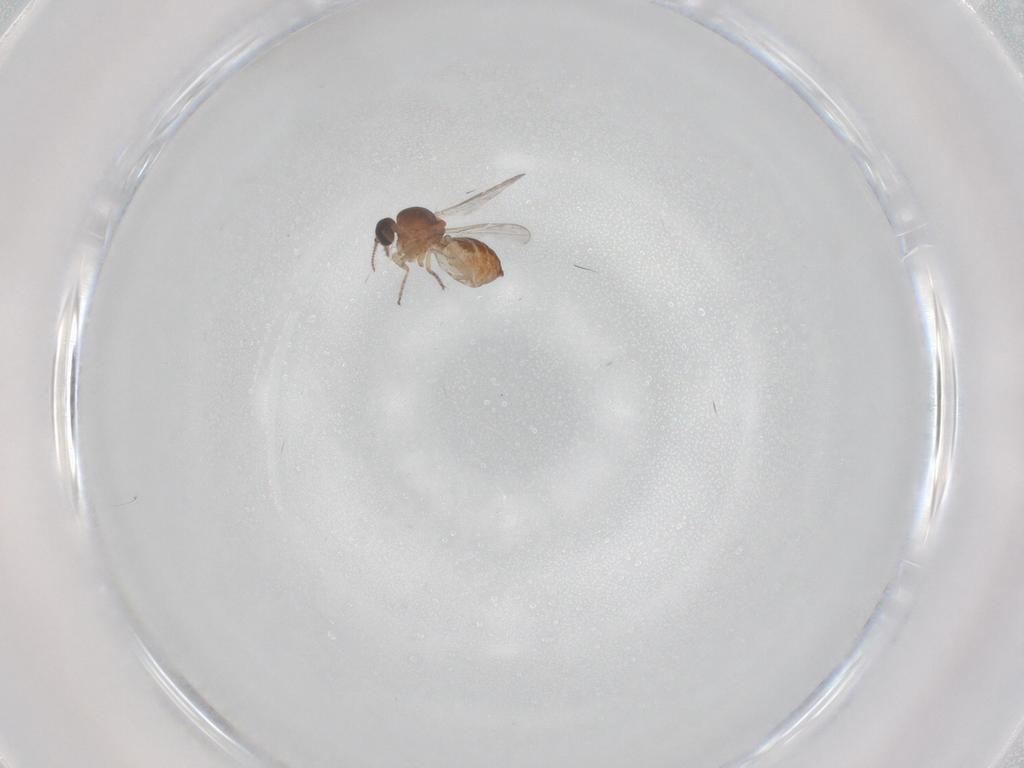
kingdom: Animalia
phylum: Arthropoda
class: Insecta
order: Diptera
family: Ceratopogonidae
